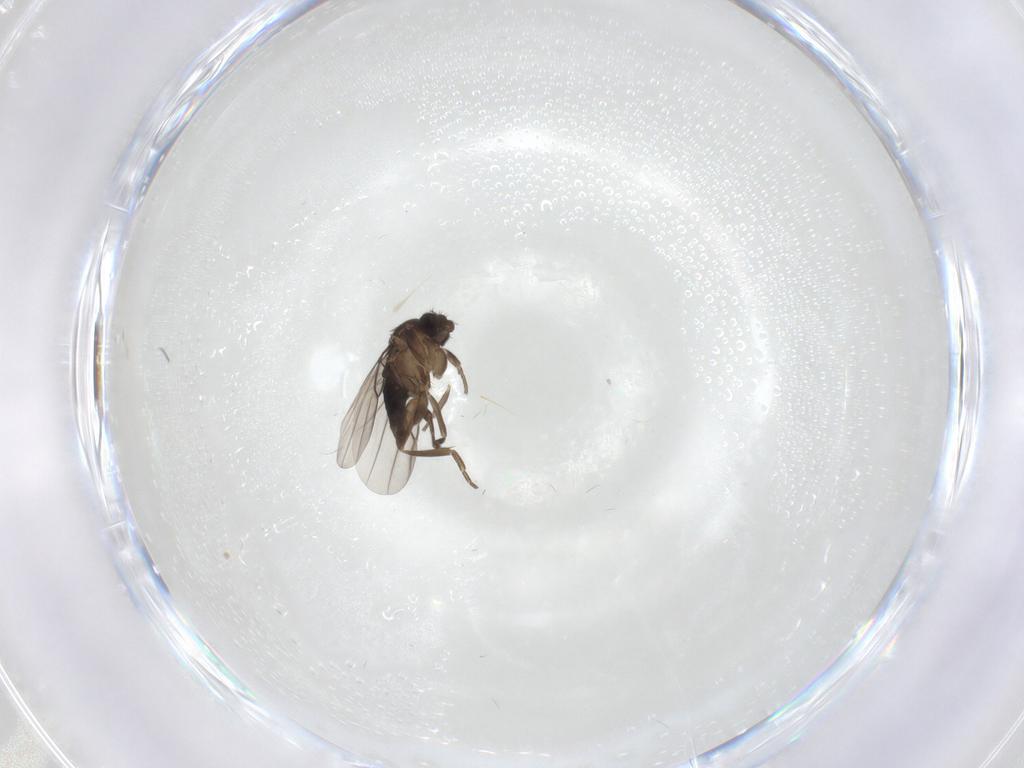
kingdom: Animalia
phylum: Arthropoda
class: Insecta
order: Diptera
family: Phoridae
